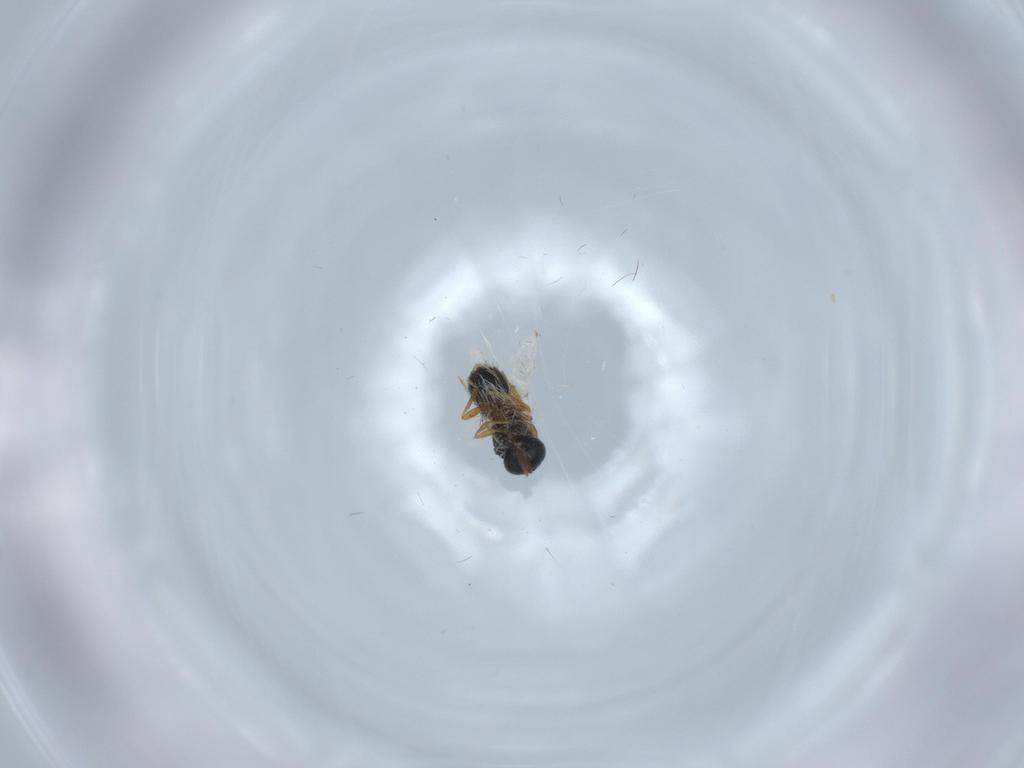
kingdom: Animalia
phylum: Arthropoda
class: Insecta
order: Hymenoptera
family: Scelionidae
